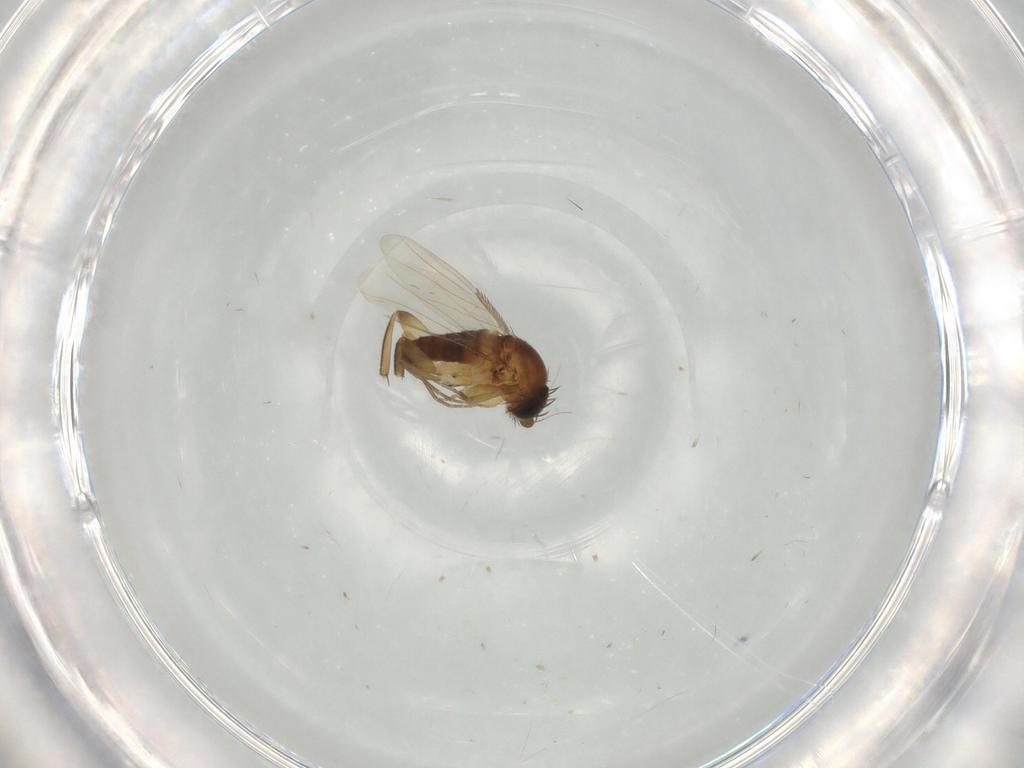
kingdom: Animalia
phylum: Arthropoda
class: Insecta
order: Diptera
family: Phoridae
